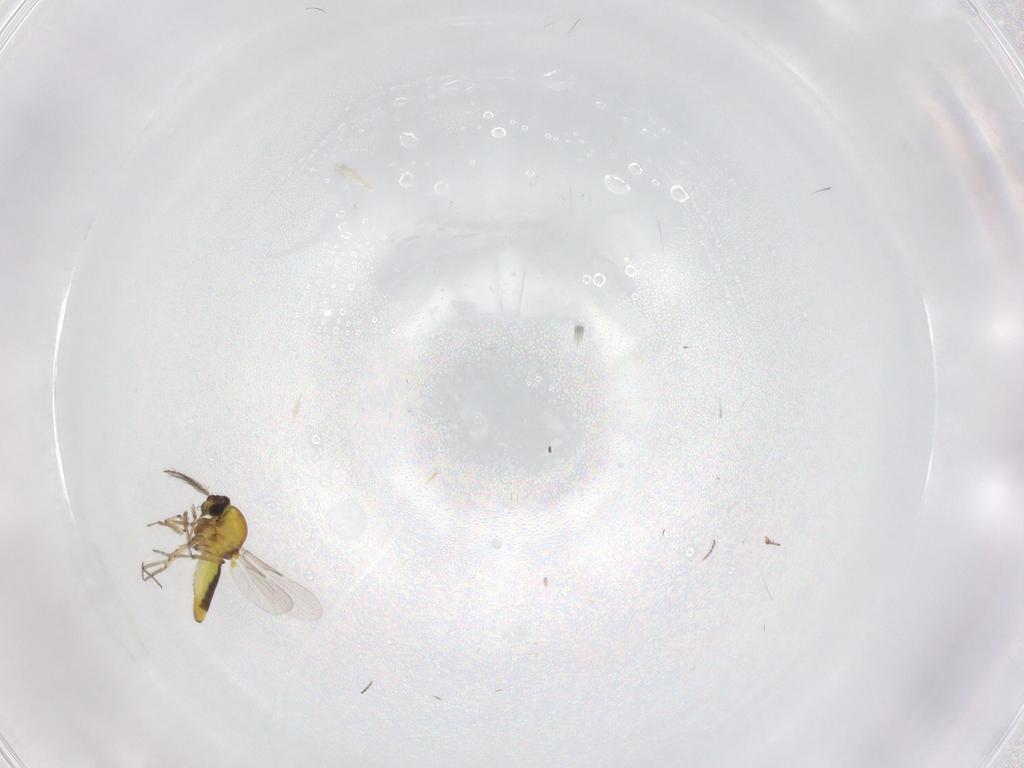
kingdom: Animalia
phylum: Arthropoda
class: Insecta
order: Diptera
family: Ceratopogonidae
